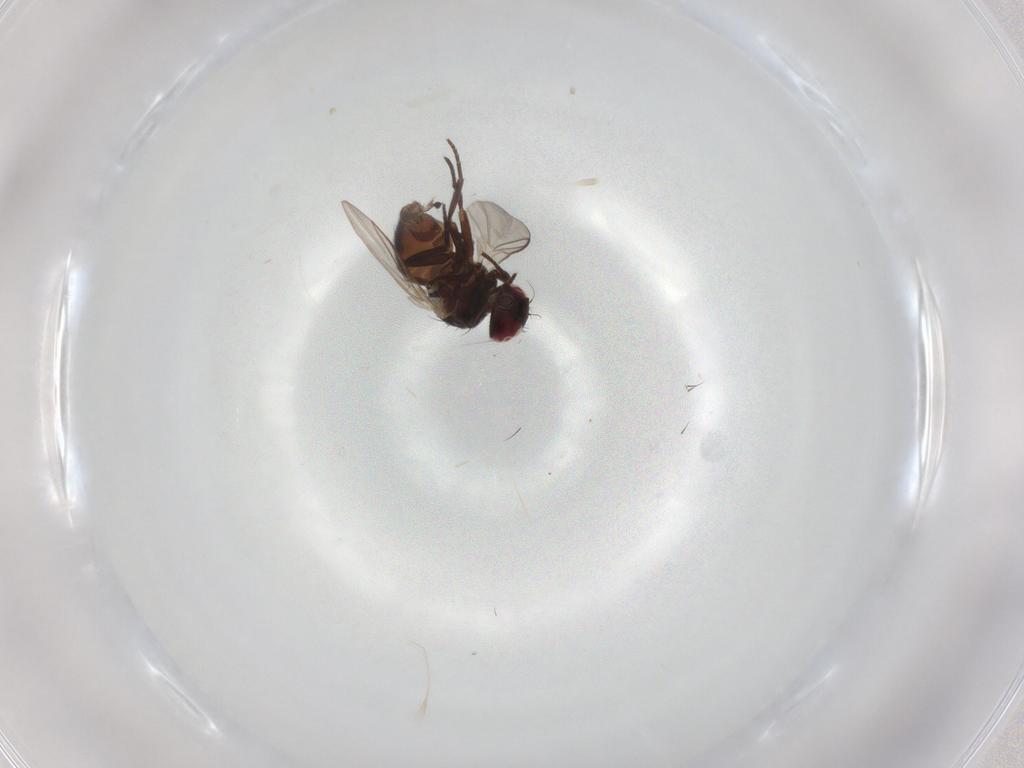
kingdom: Animalia
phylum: Arthropoda
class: Insecta
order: Diptera
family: Agromyzidae
